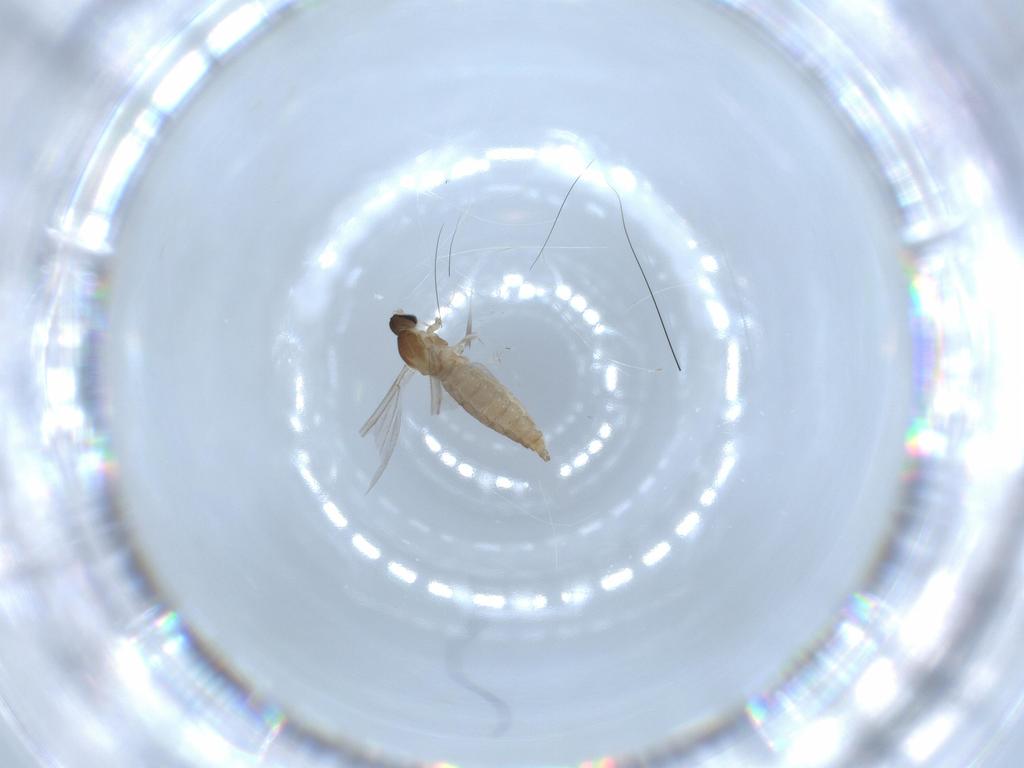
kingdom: Animalia
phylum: Arthropoda
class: Insecta
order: Diptera
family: Cecidomyiidae
